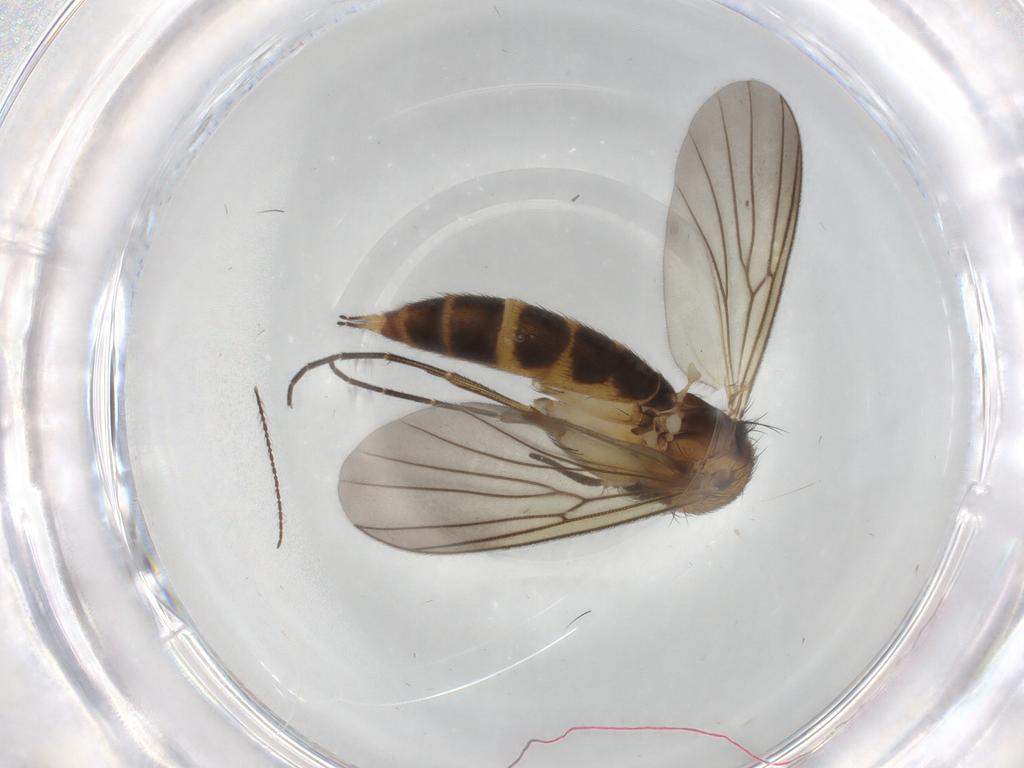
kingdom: Animalia
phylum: Arthropoda
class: Insecta
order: Diptera
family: Mycetophilidae
